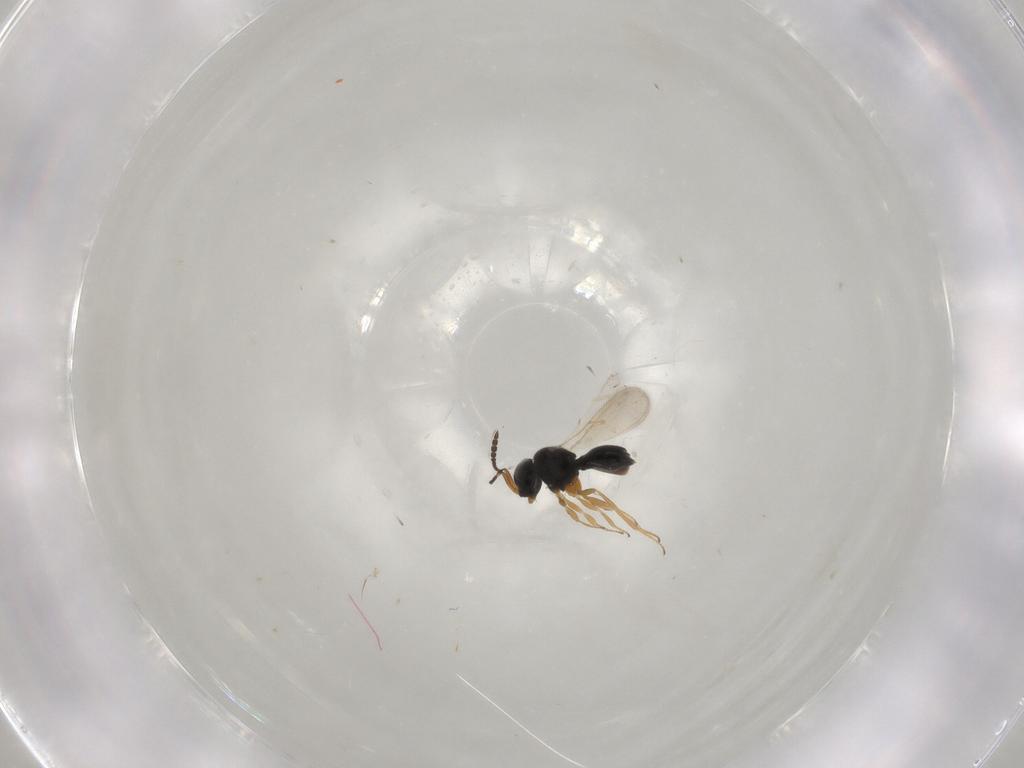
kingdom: Animalia
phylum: Arthropoda
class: Insecta
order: Hymenoptera
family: Scelionidae
